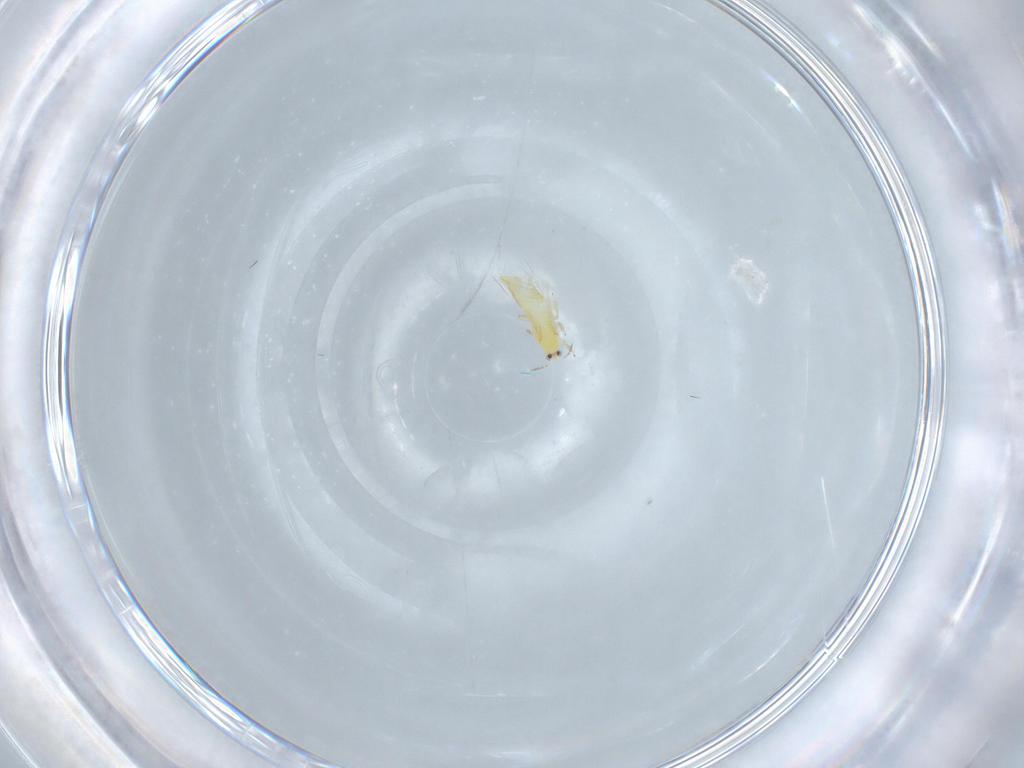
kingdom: Animalia
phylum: Arthropoda
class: Insecta
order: Thysanoptera
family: Thripidae
